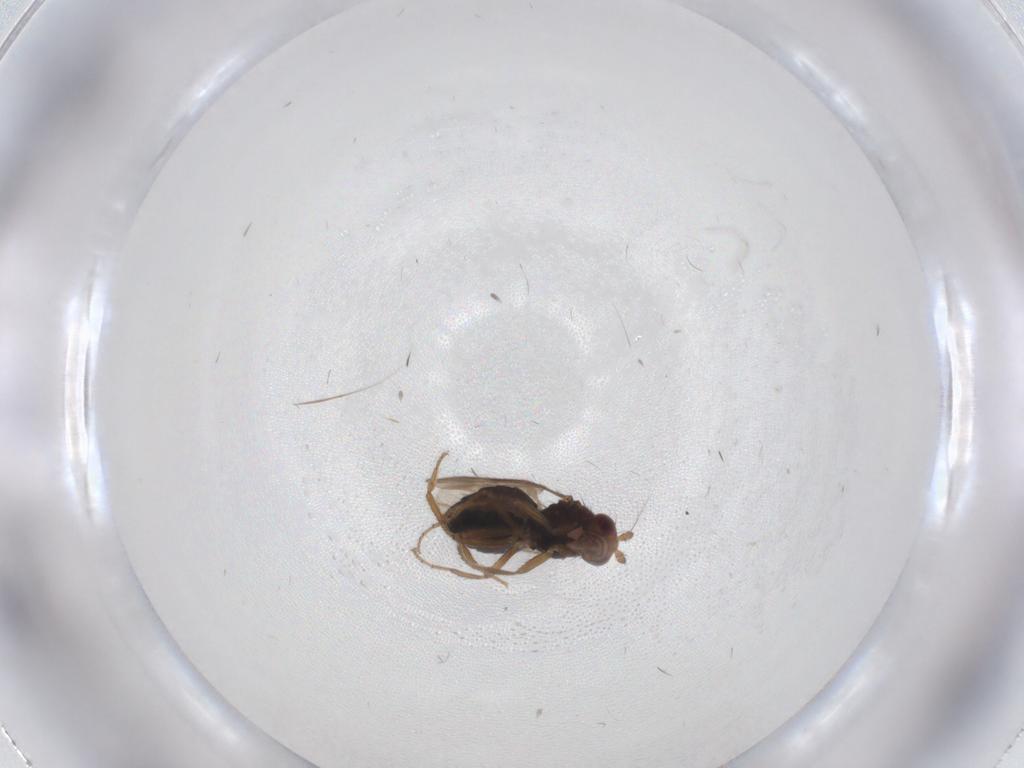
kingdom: Animalia
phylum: Arthropoda
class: Insecta
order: Diptera
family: Sphaeroceridae
